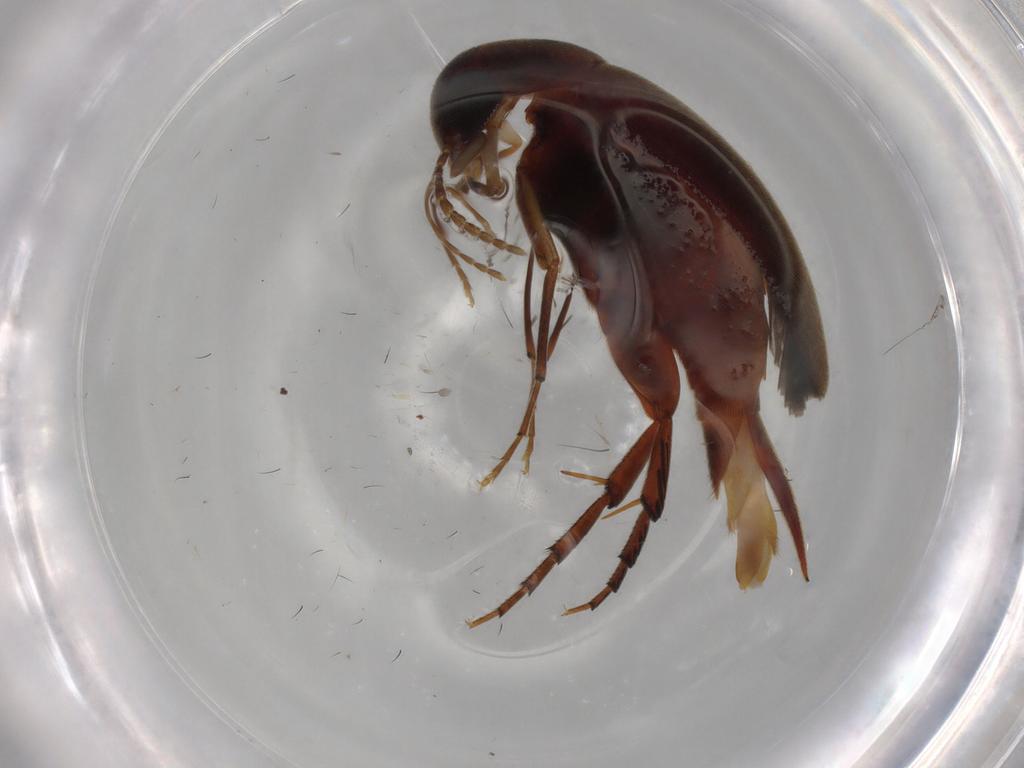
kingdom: Animalia
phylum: Arthropoda
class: Insecta
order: Coleoptera
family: Mordellidae
